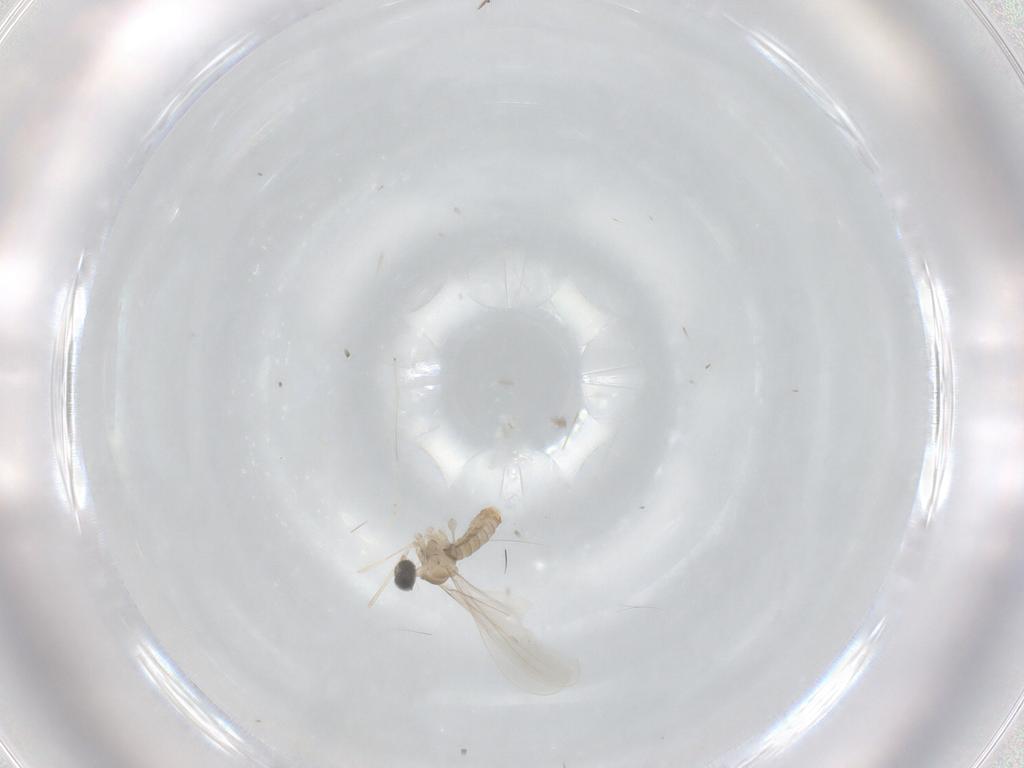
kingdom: Animalia
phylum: Arthropoda
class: Insecta
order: Diptera
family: Cecidomyiidae
